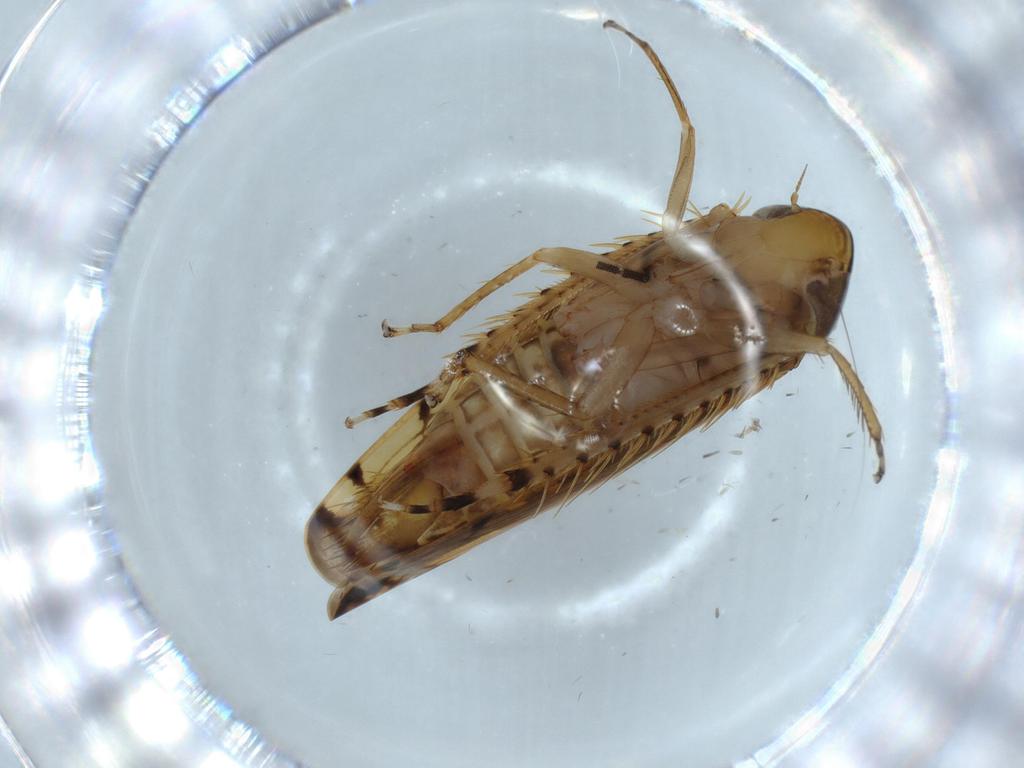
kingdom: Animalia
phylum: Arthropoda
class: Insecta
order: Hemiptera
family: Cicadellidae
